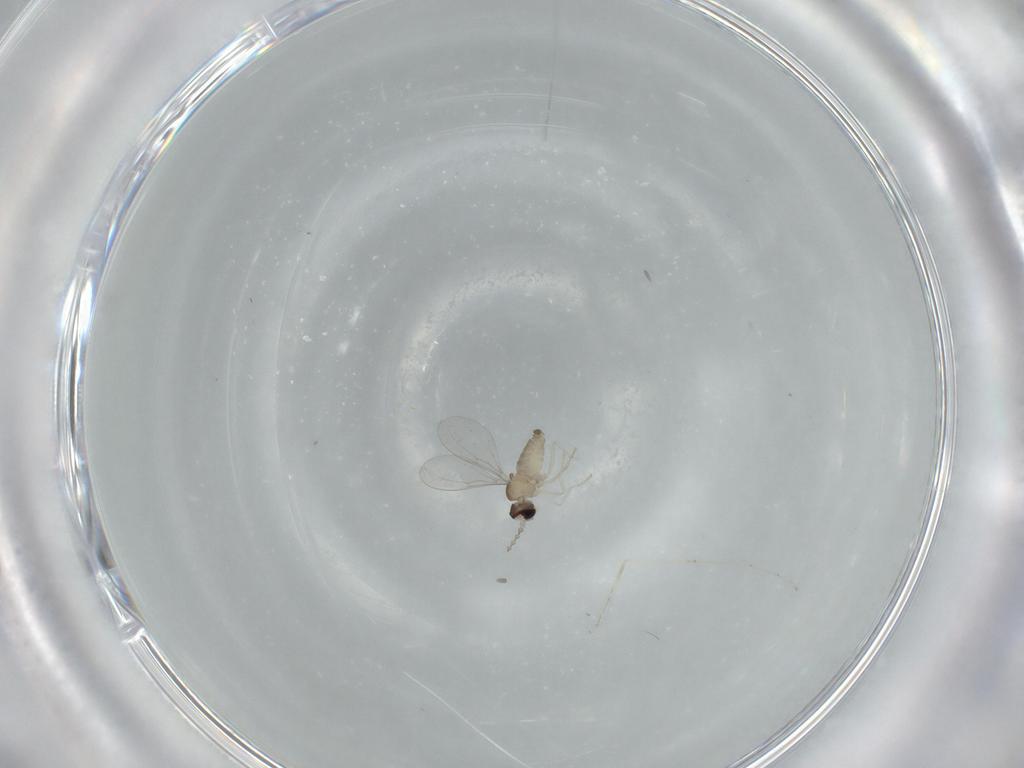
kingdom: Animalia
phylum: Arthropoda
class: Insecta
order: Diptera
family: Cecidomyiidae
